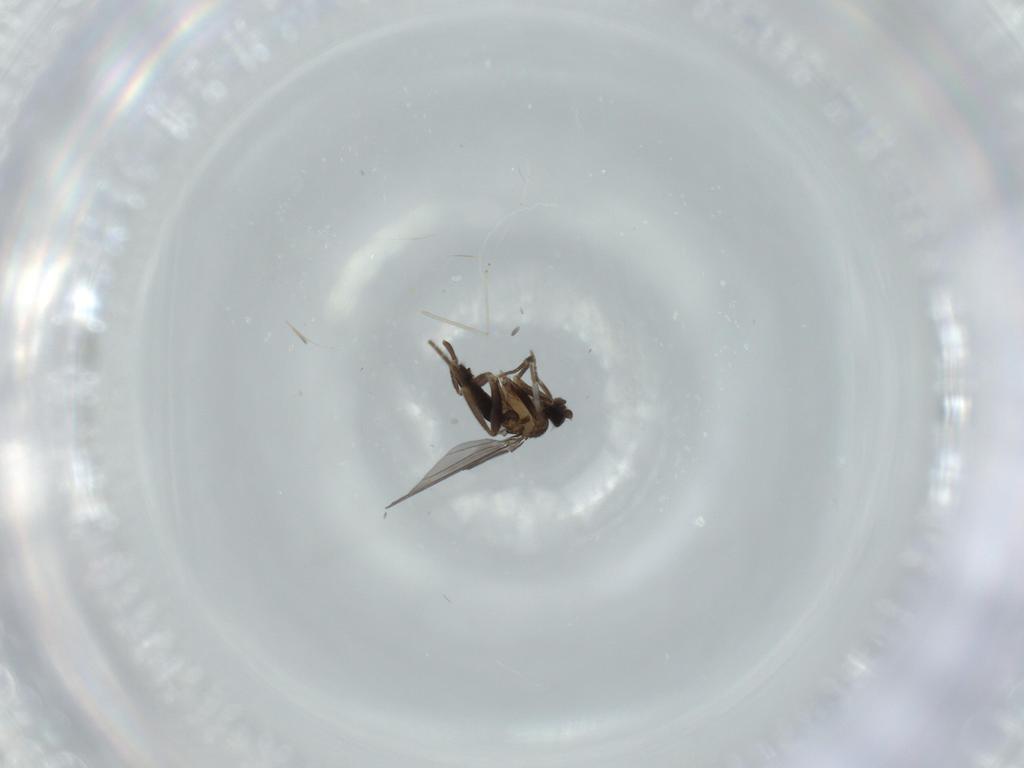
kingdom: Animalia
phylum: Arthropoda
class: Insecta
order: Diptera
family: Cecidomyiidae
